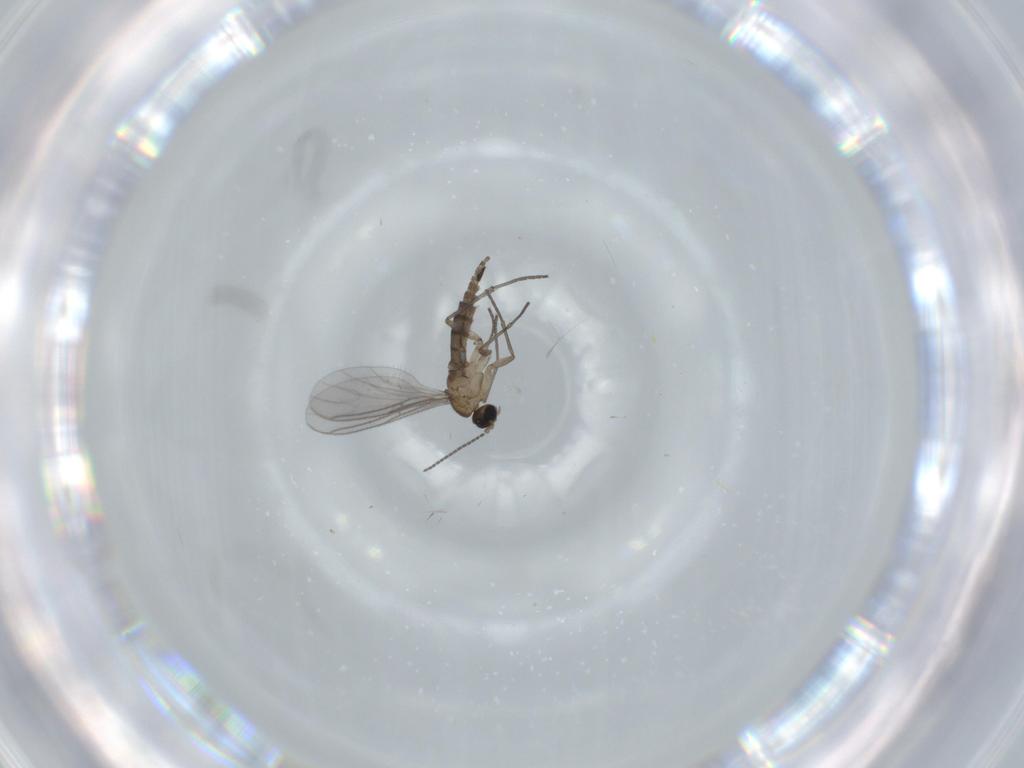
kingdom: Animalia
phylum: Arthropoda
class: Insecta
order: Diptera
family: Sciaridae
